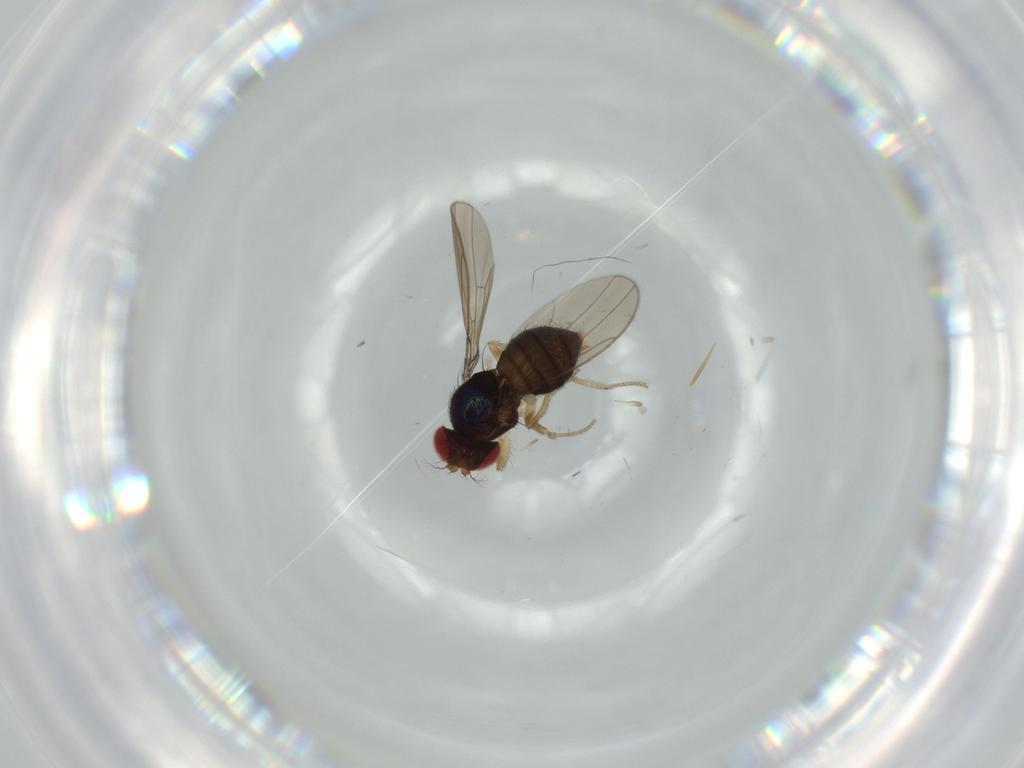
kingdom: Animalia
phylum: Arthropoda
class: Insecta
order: Diptera
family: Drosophilidae
